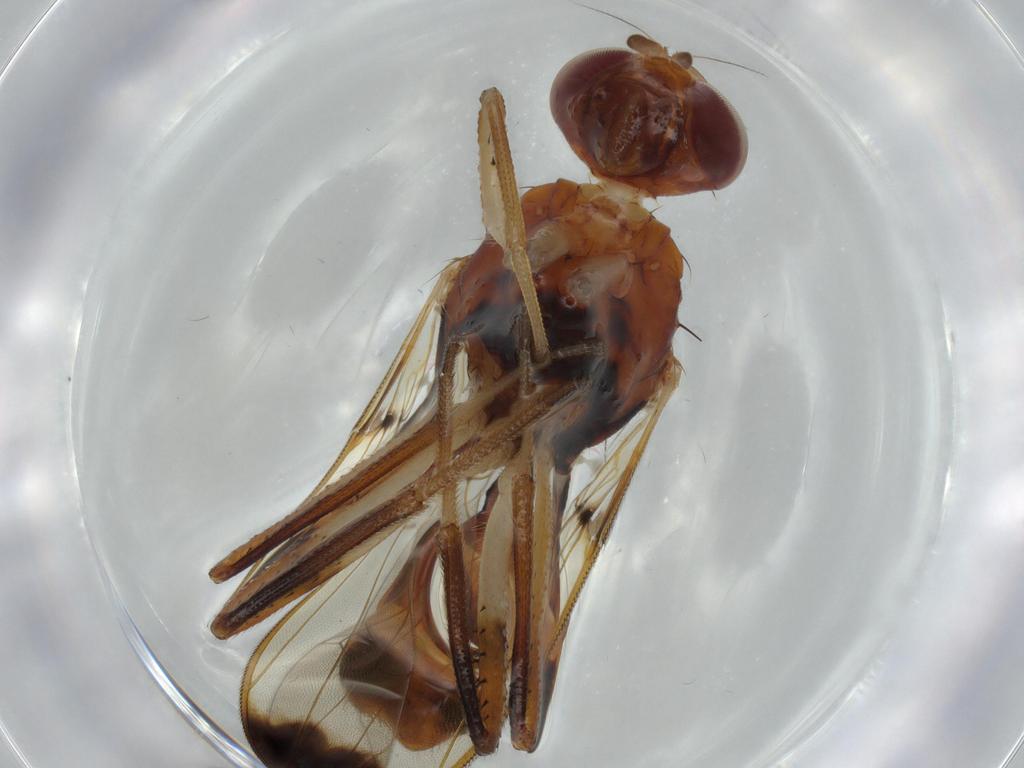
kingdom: Animalia
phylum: Arthropoda
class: Insecta
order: Diptera
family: Richardiidae
